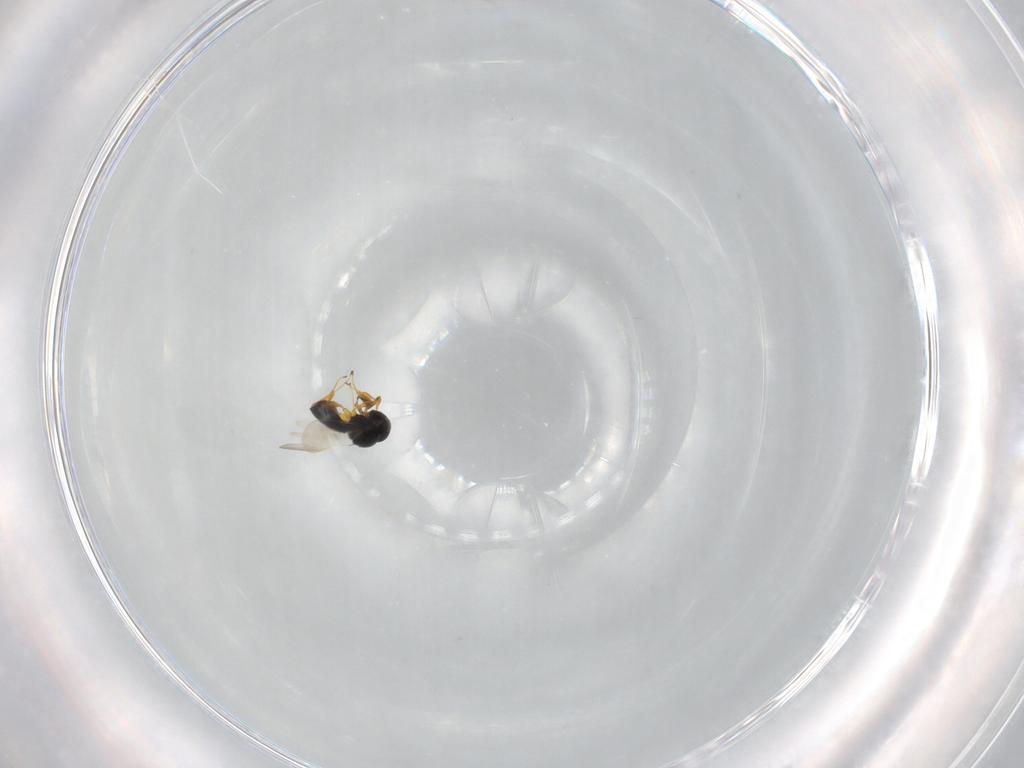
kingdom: Animalia
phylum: Arthropoda
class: Insecta
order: Hymenoptera
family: Platygastridae
